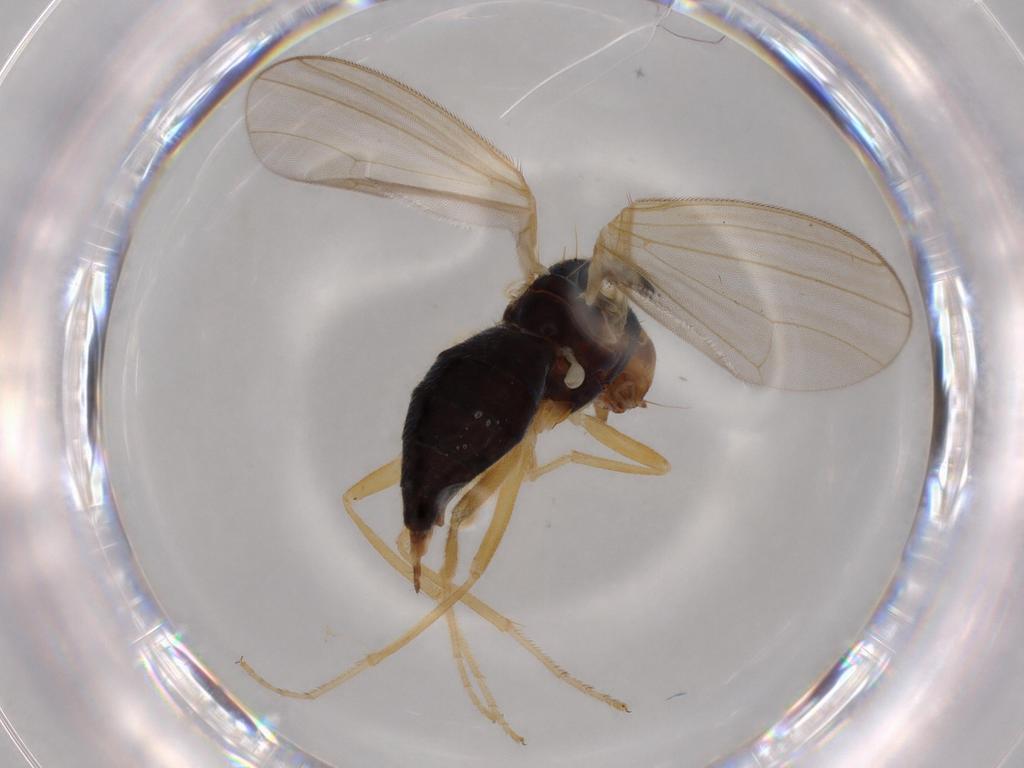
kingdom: Animalia
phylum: Arthropoda
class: Insecta
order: Diptera
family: Psilidae
